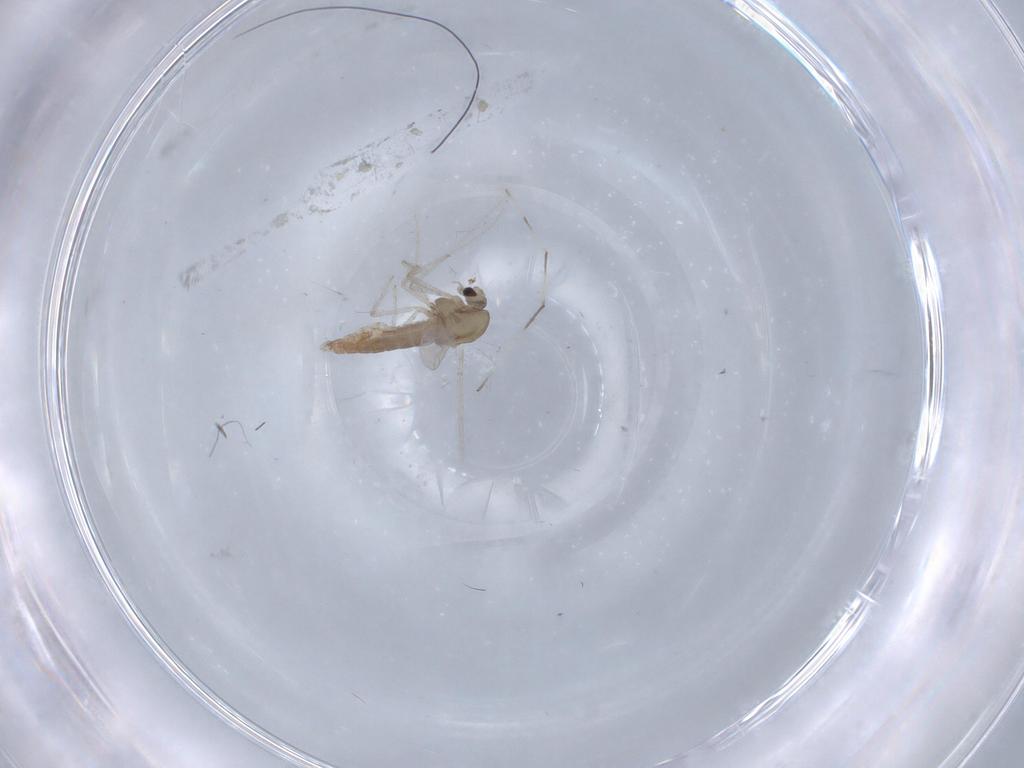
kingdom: Animalia
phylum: Arthropoda
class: Insecta
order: Diptera
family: Chironomidae
